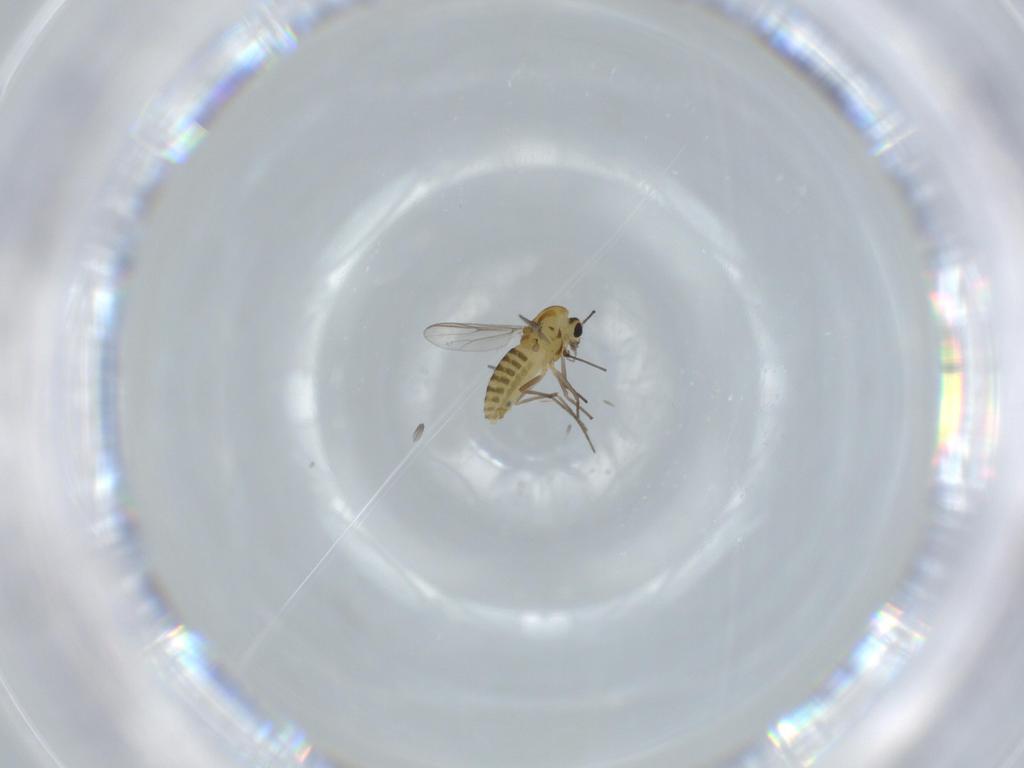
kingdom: Animalia
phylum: Arthropoda
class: Insecta
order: Diptera
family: Chironomidae
